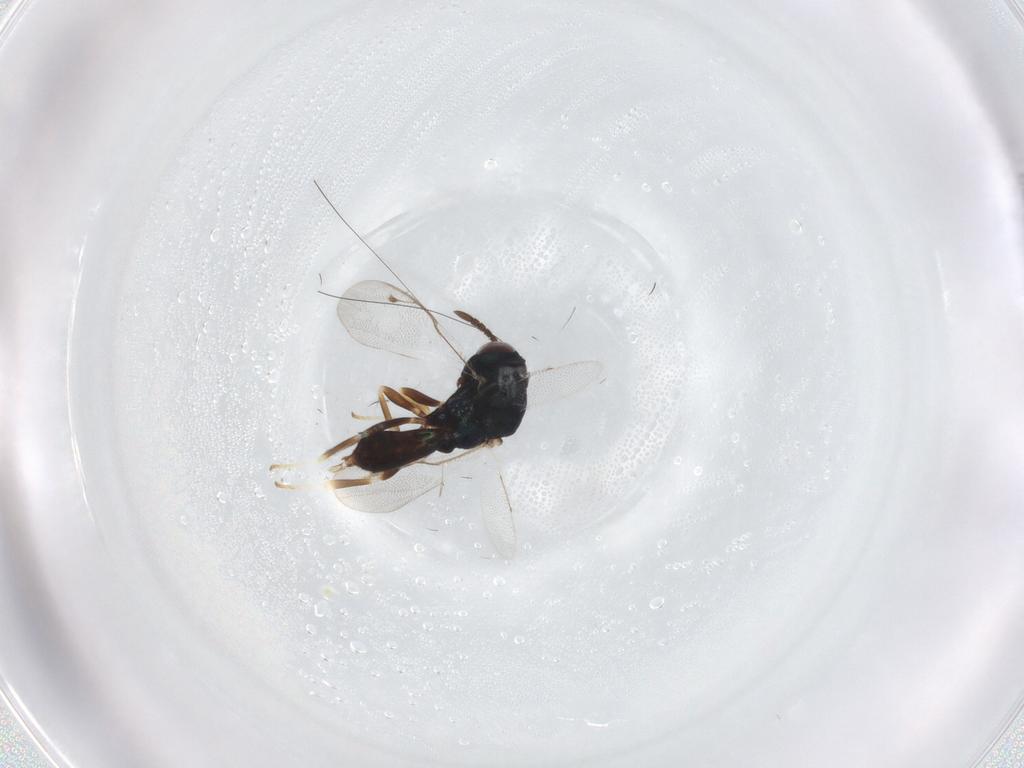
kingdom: Animalia
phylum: Arthropoda
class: Insecta
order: Hymenoptera
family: Pteromalidae
